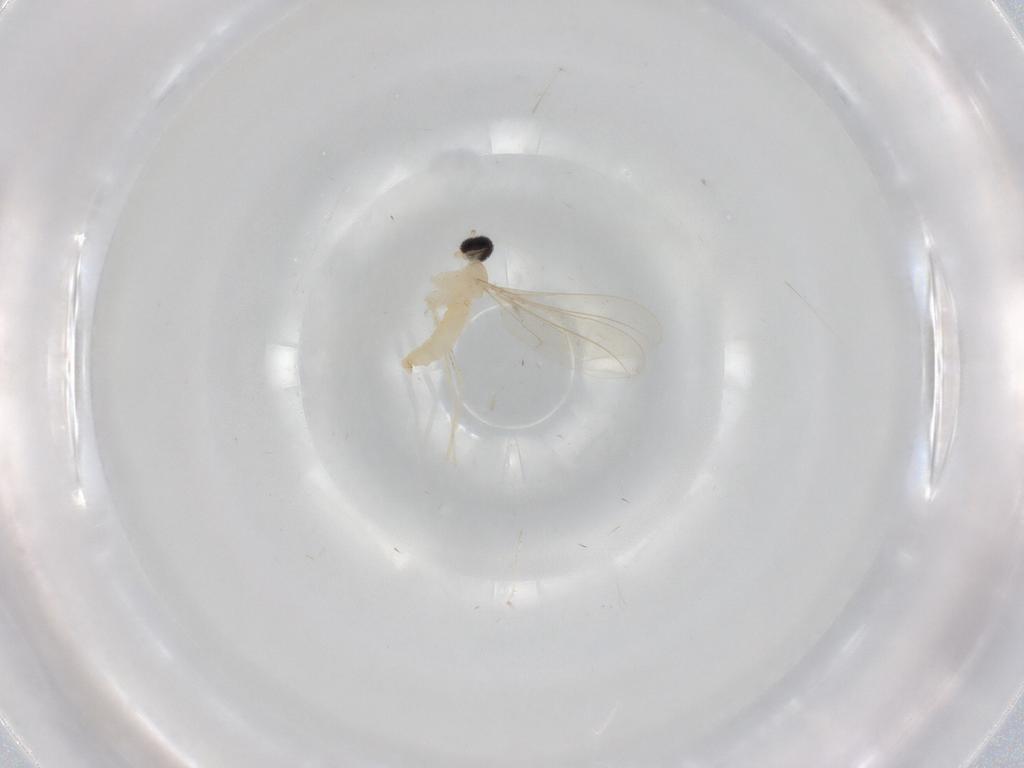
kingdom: Animalia
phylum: Arthropoda
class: Insecta
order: Diptera
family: Cecidomyiidae
